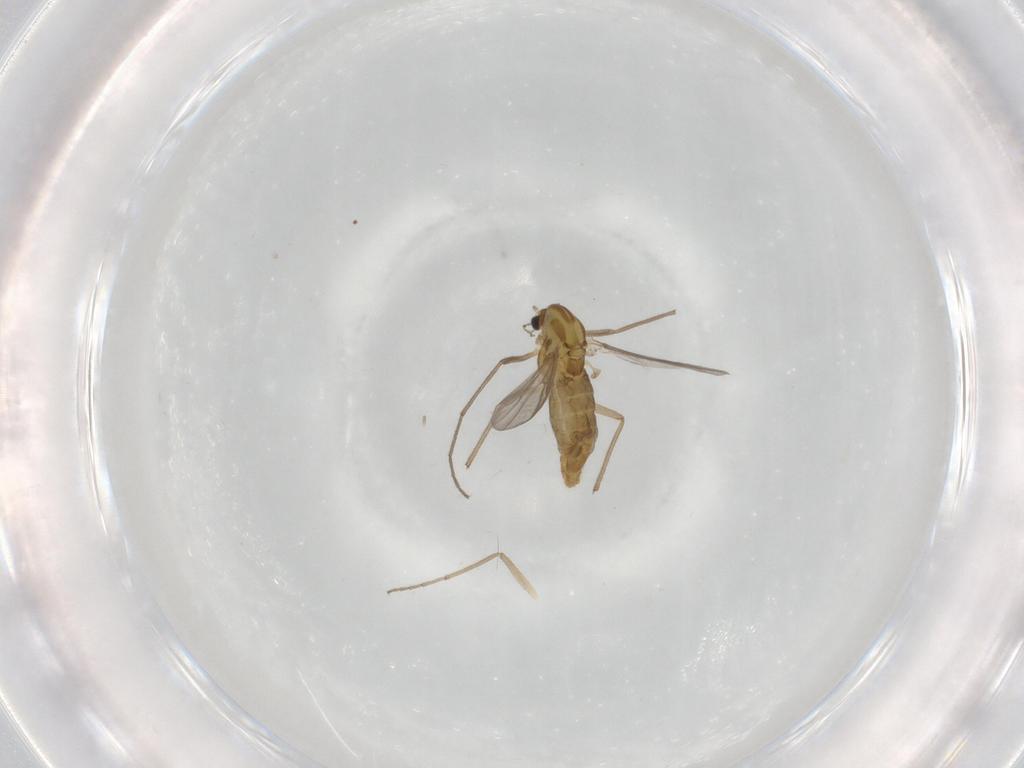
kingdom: Animalia
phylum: Arthropoda
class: Insecta
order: Diptera
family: Chironomidae
